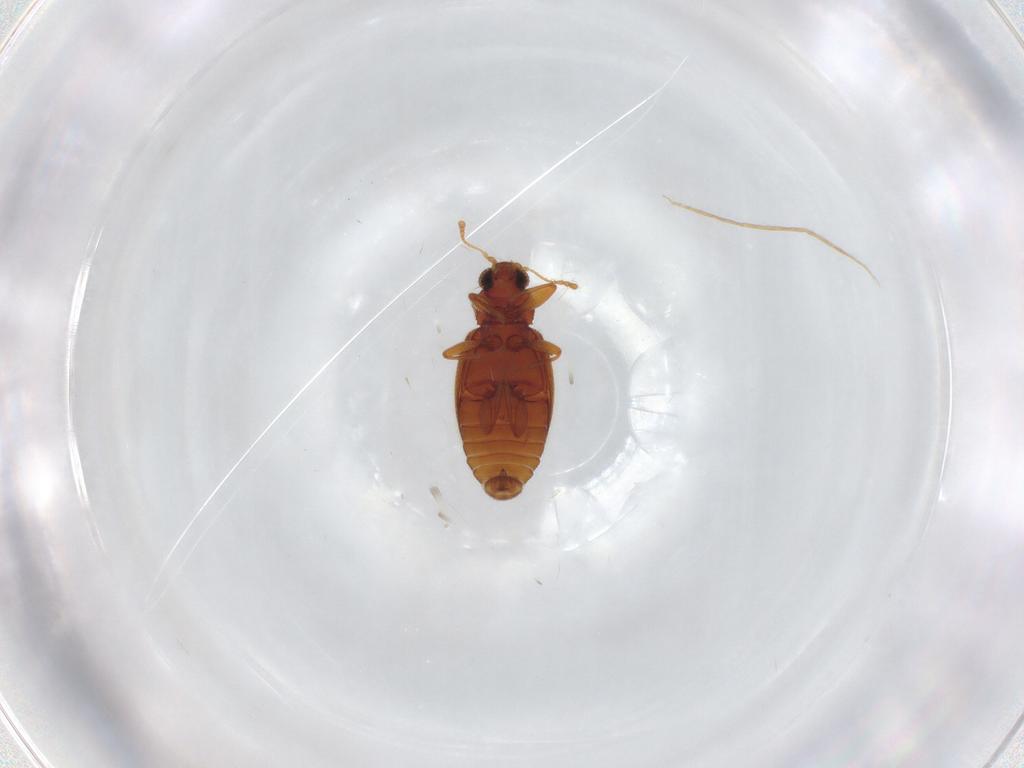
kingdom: Animalia
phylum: Arthropoda
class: Insecta
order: Coleoptera
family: Latridiidae
